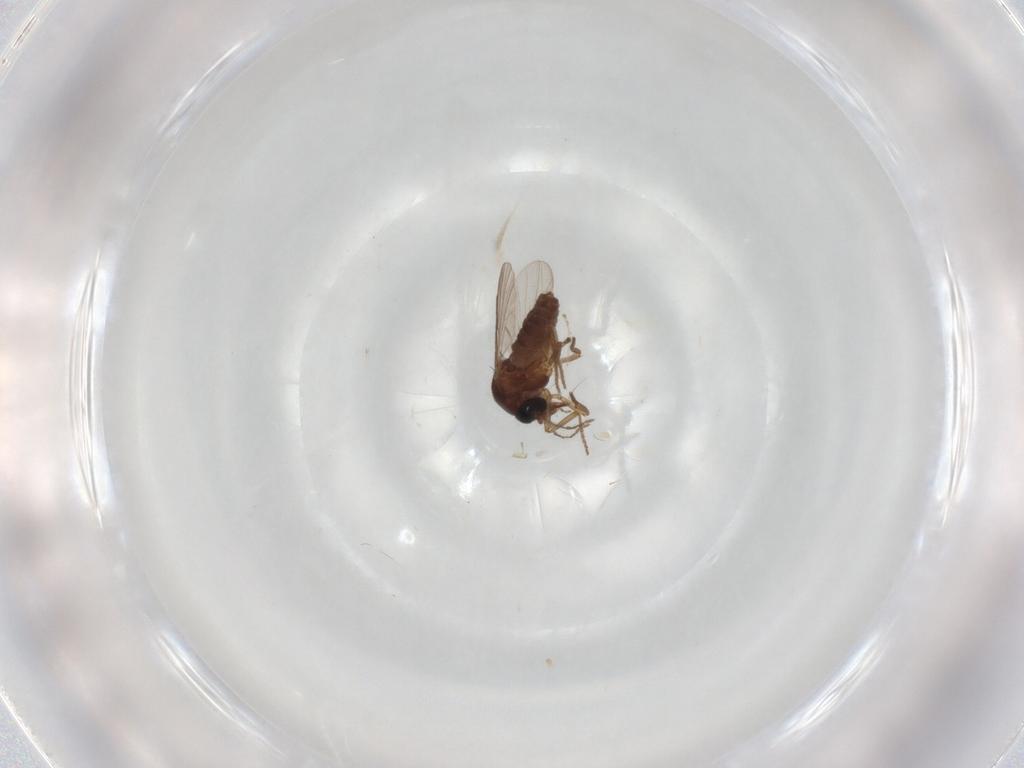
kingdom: Animalia
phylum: Arthropoda
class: Insecta
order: Diptera
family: Ceratopogonidae
